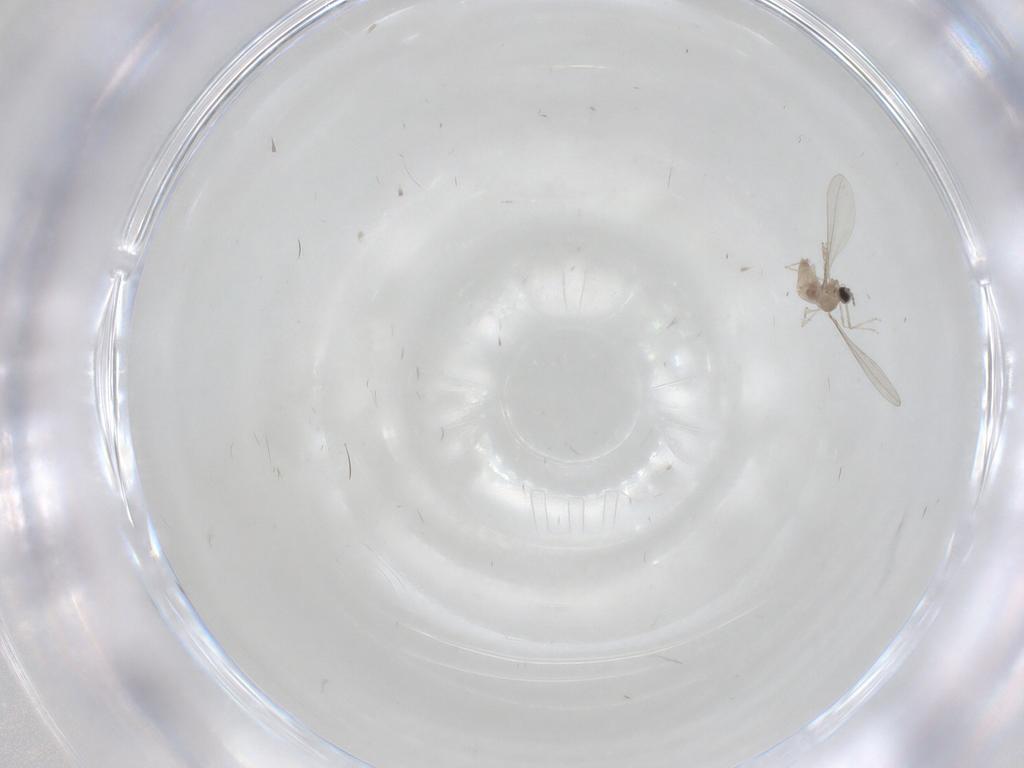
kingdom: Animalia
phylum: Arthropoda
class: Insecta
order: Diptera
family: Cecidomyiidae
